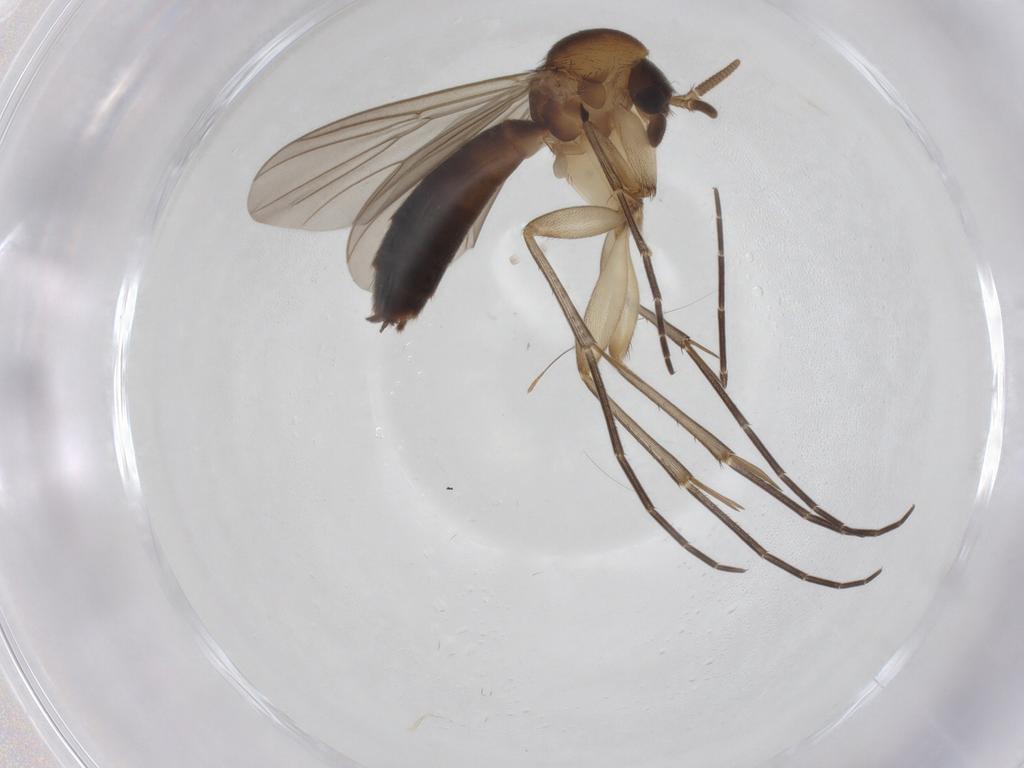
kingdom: Animalia
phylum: Arthropoda
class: Insecta
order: Diptera
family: Mycetophilidae
